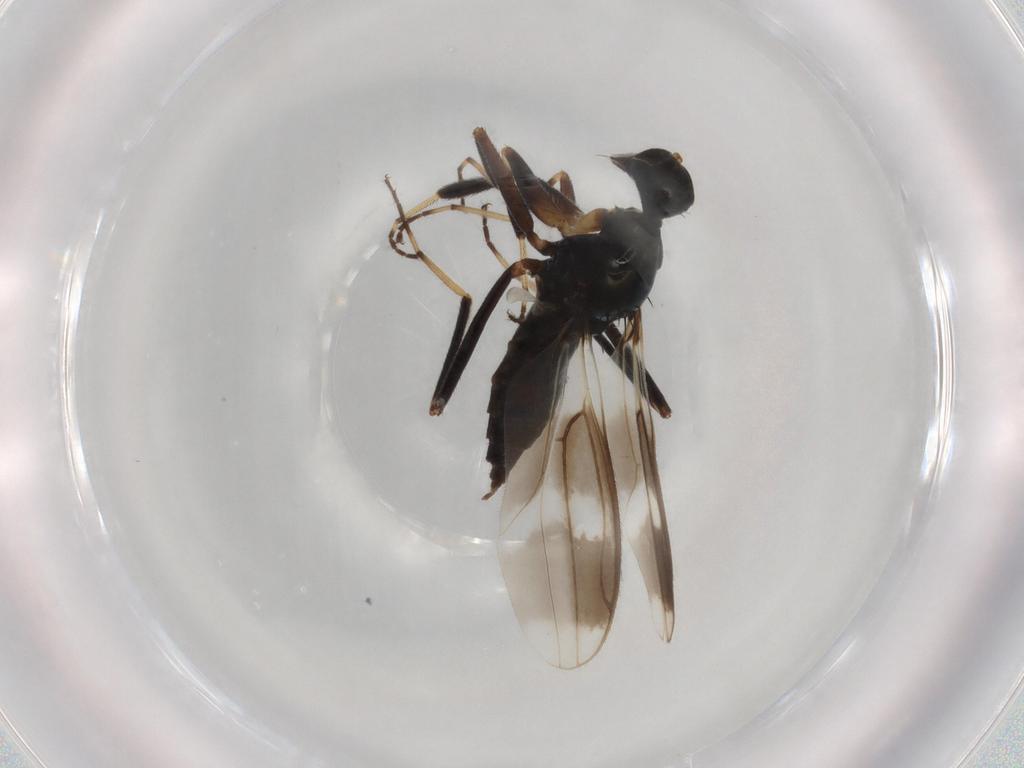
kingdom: Animalia
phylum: Arthropoda
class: Insecta
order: Diptera
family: Hybotidae
